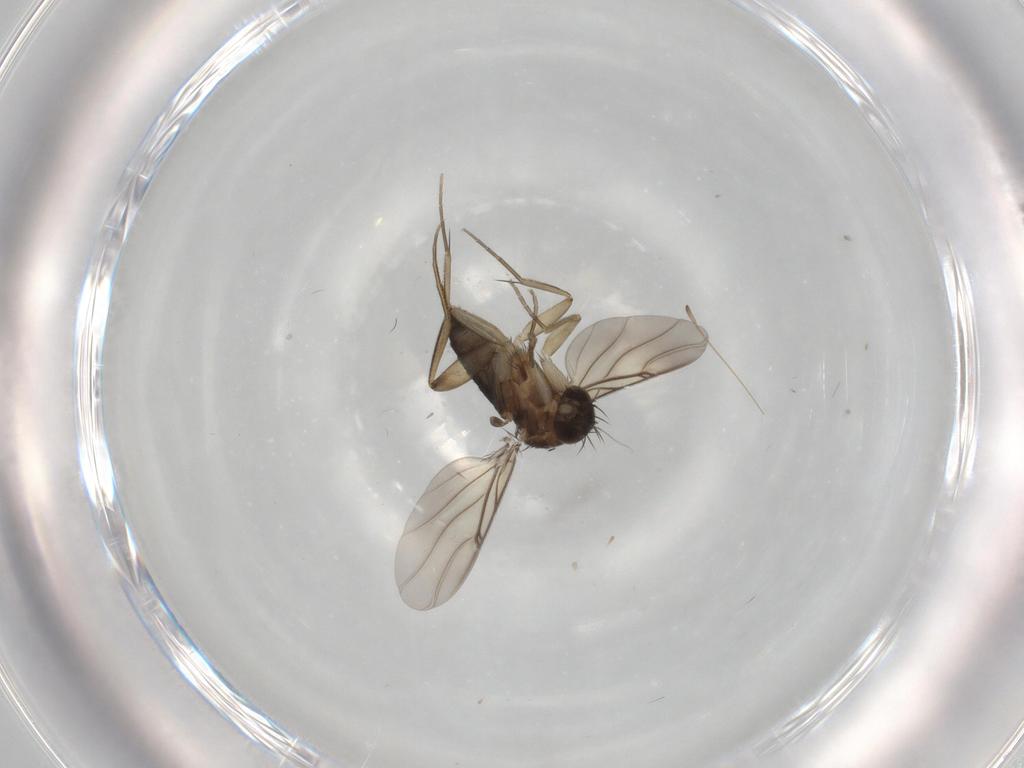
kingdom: Animalia
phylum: Arthropoda
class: Insecta
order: Diptera
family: Phoridae
